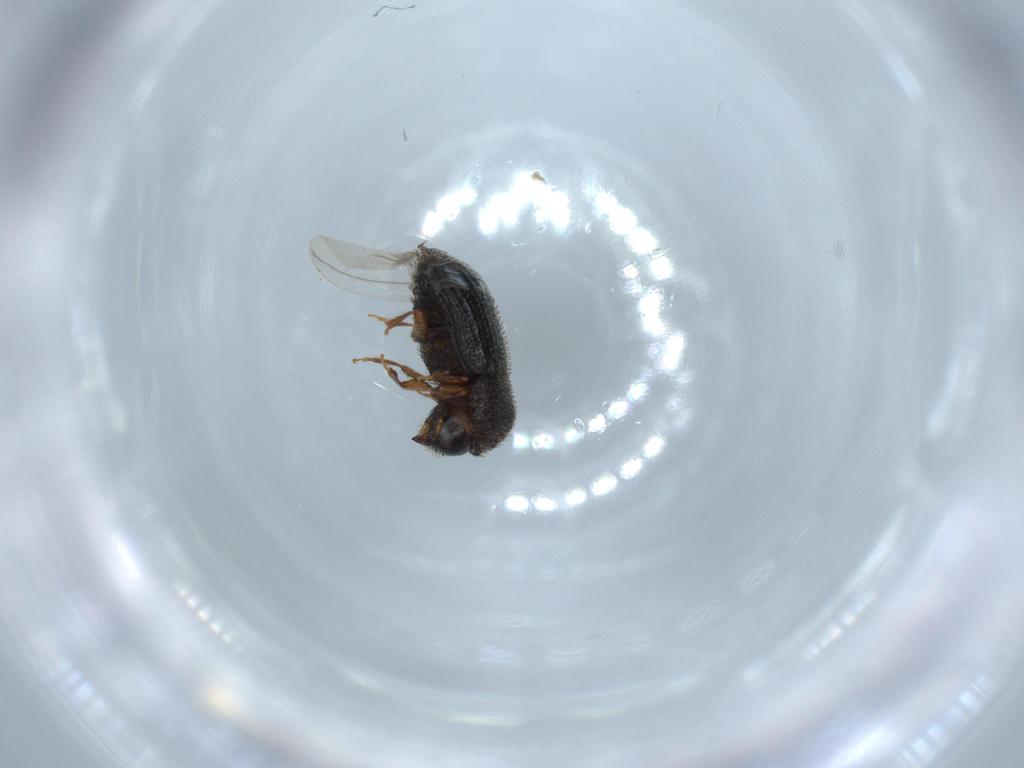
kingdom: Animalia
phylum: Arthropoda
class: Insecta
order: Coleoptera
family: Curculionidae
